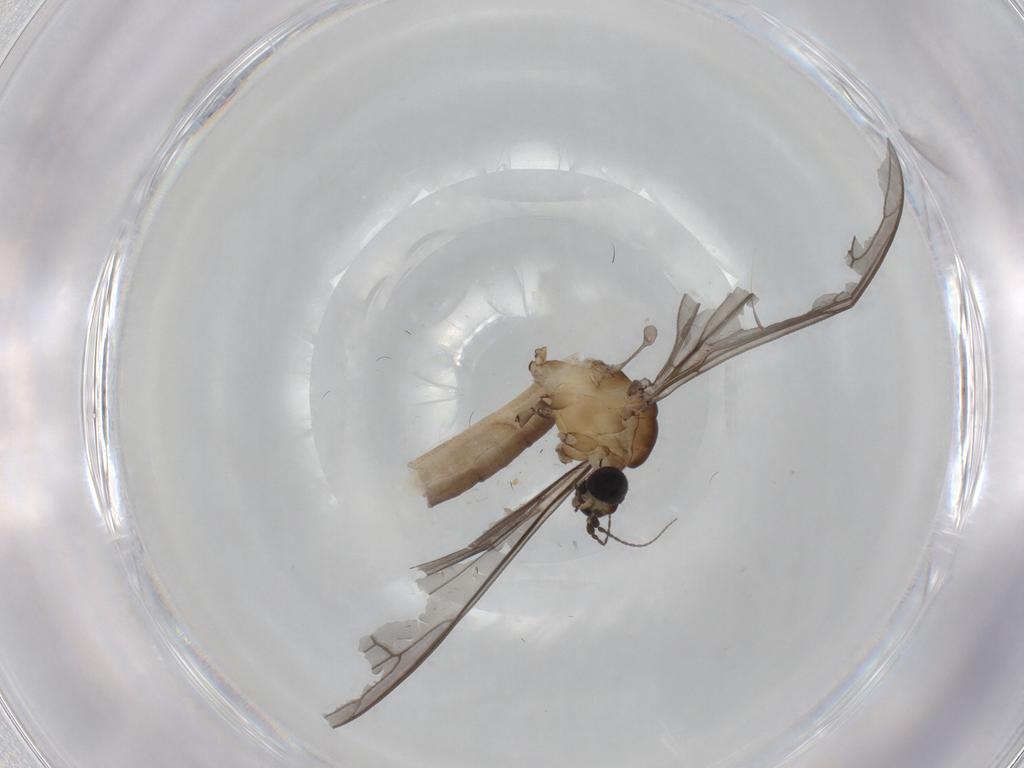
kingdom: Animalia
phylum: Arthropoda
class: Insecta
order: Diptera
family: Limoniidae
